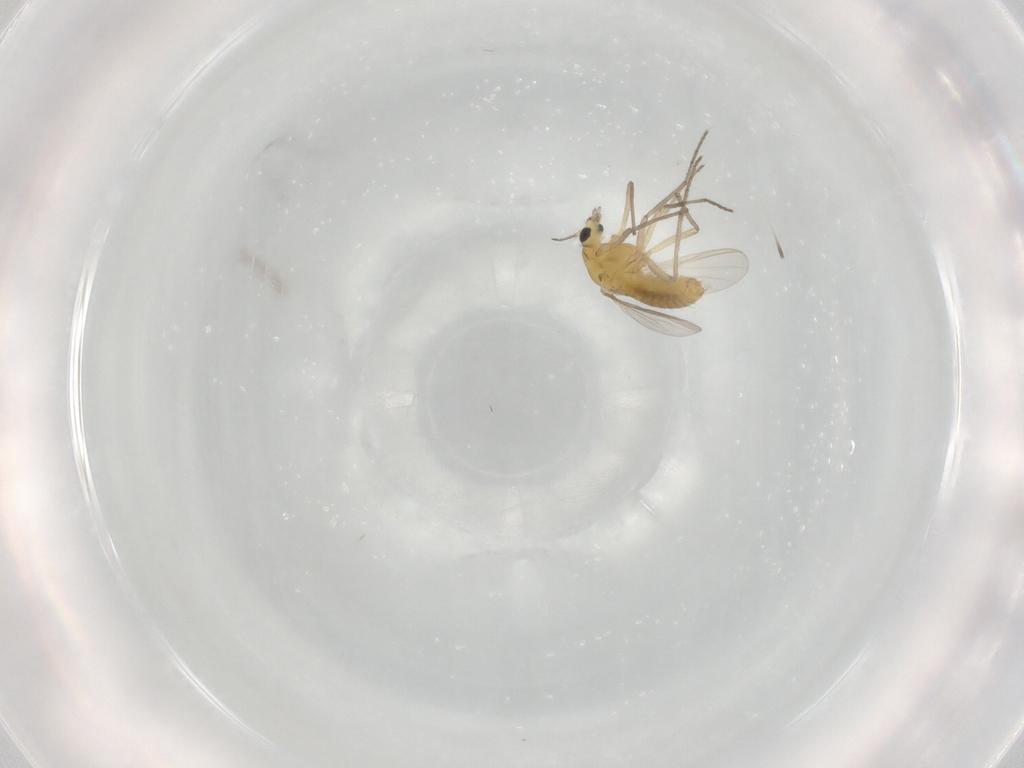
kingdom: Animalia
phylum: Arthropoda
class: Insecta
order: Diptera
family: Chironomidae
